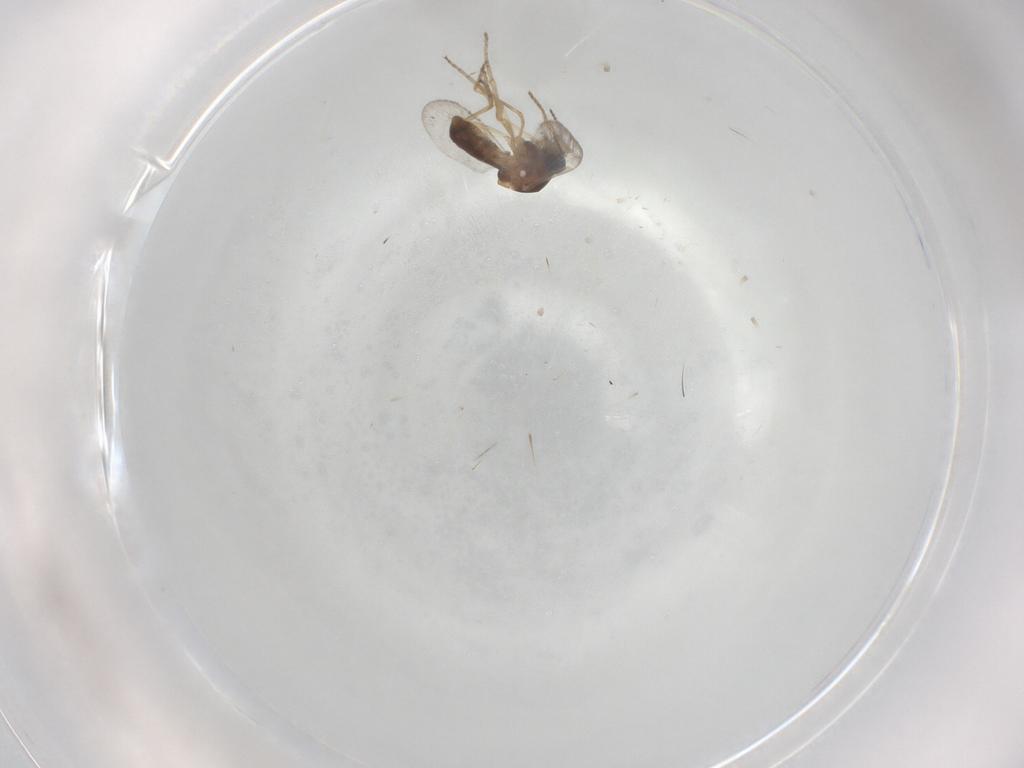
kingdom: Animalia
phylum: Arthropoda
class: Insecta
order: Diptera
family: Ceratopogonidae
